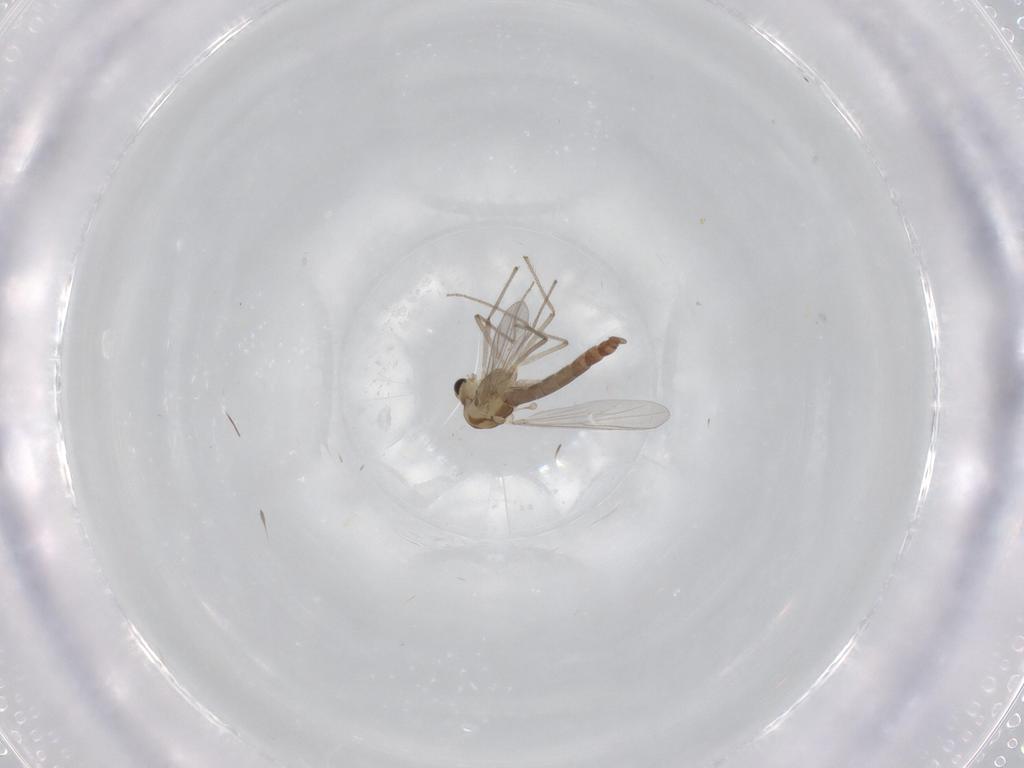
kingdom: Animalia
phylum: Arthropoda
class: Insecta
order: Diptera
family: Chironomidae
